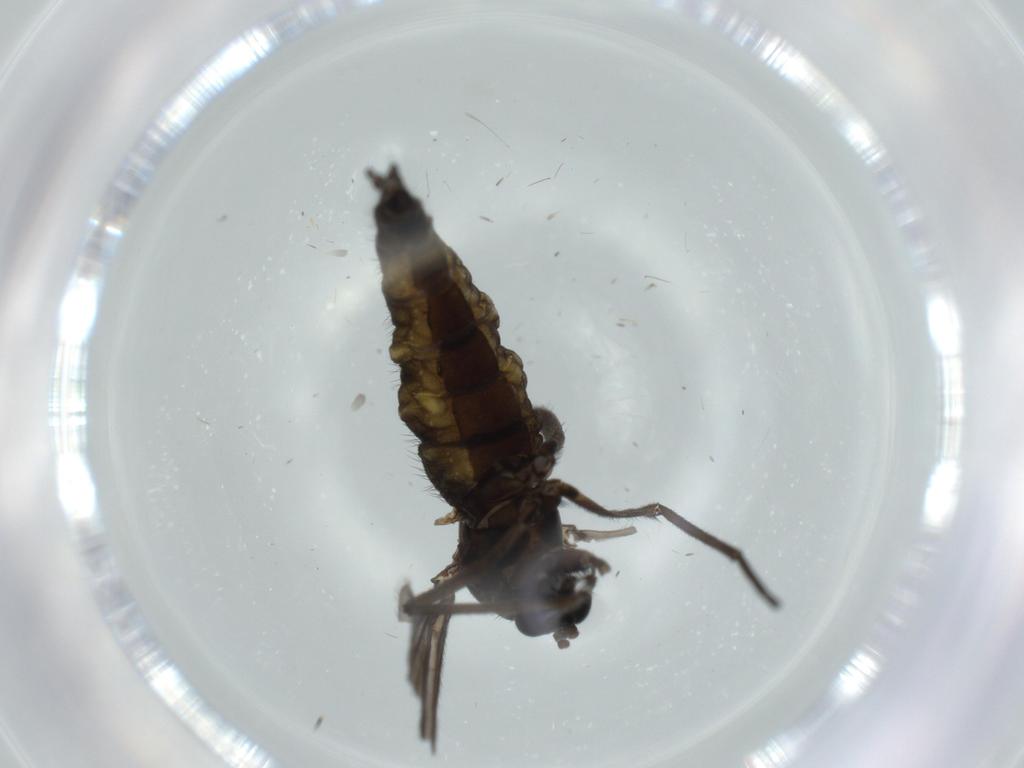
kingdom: Animalia
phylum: Arthropoda
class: Insecta
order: Diptera
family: Sciaridae
